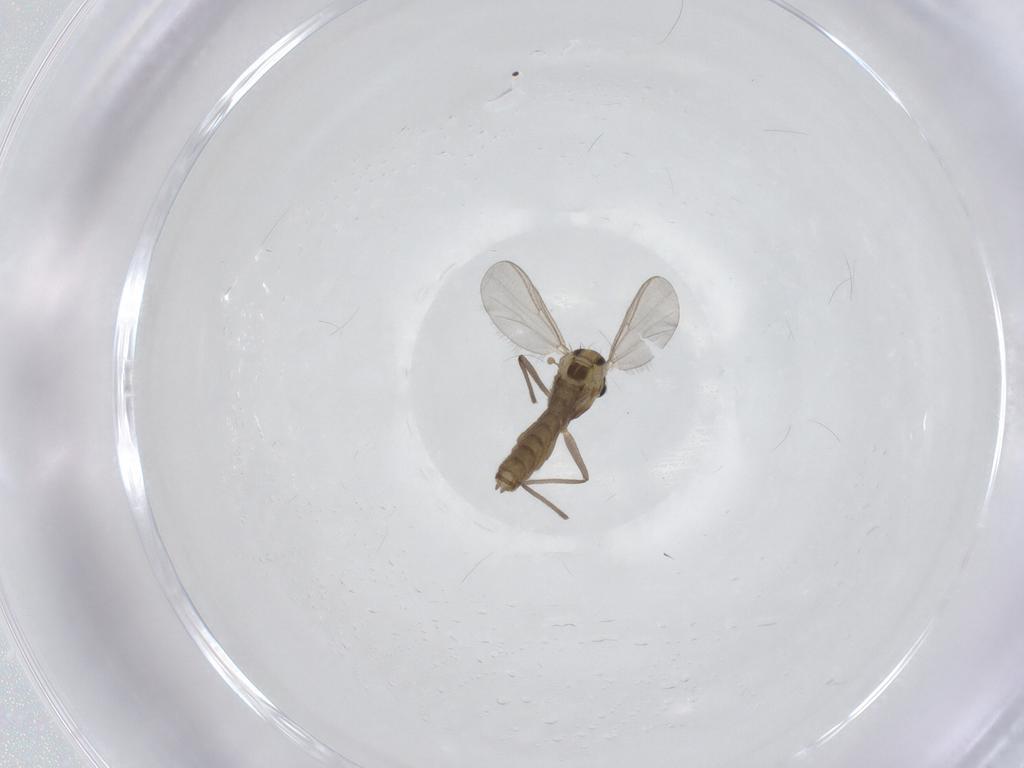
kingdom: Animalia
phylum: Arthropoda
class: Insecta
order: Diptera
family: Chironomidae
